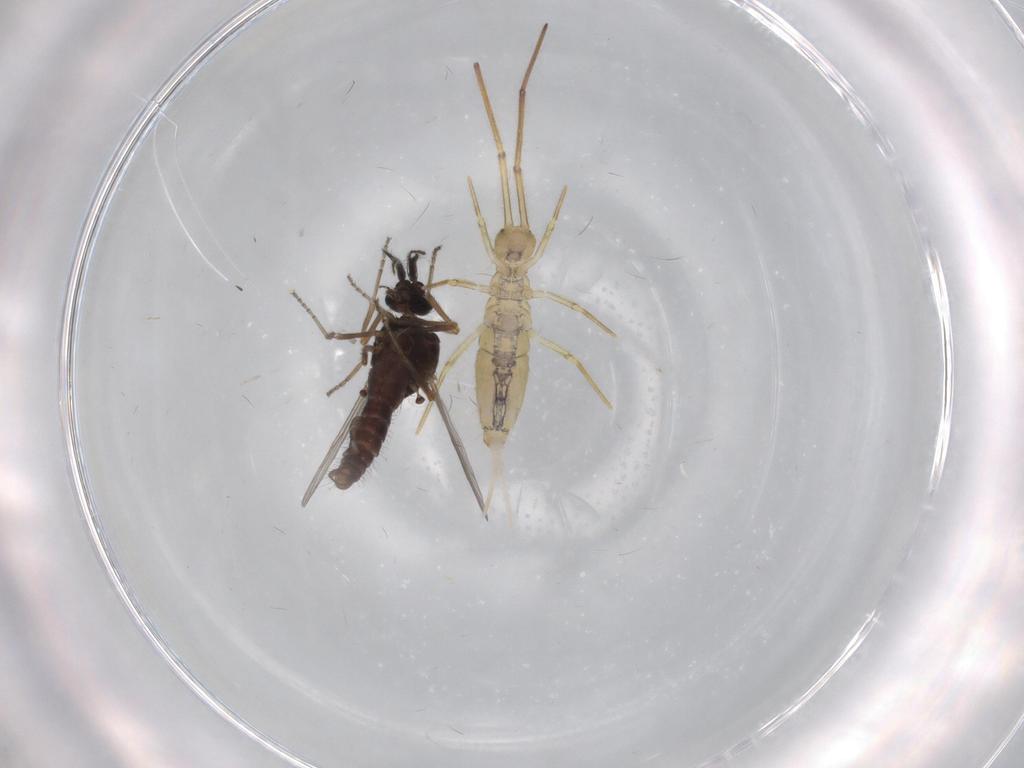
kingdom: Animalia
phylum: Arthropoda
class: Insecta
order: Diptera
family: Ceratopogonidae
